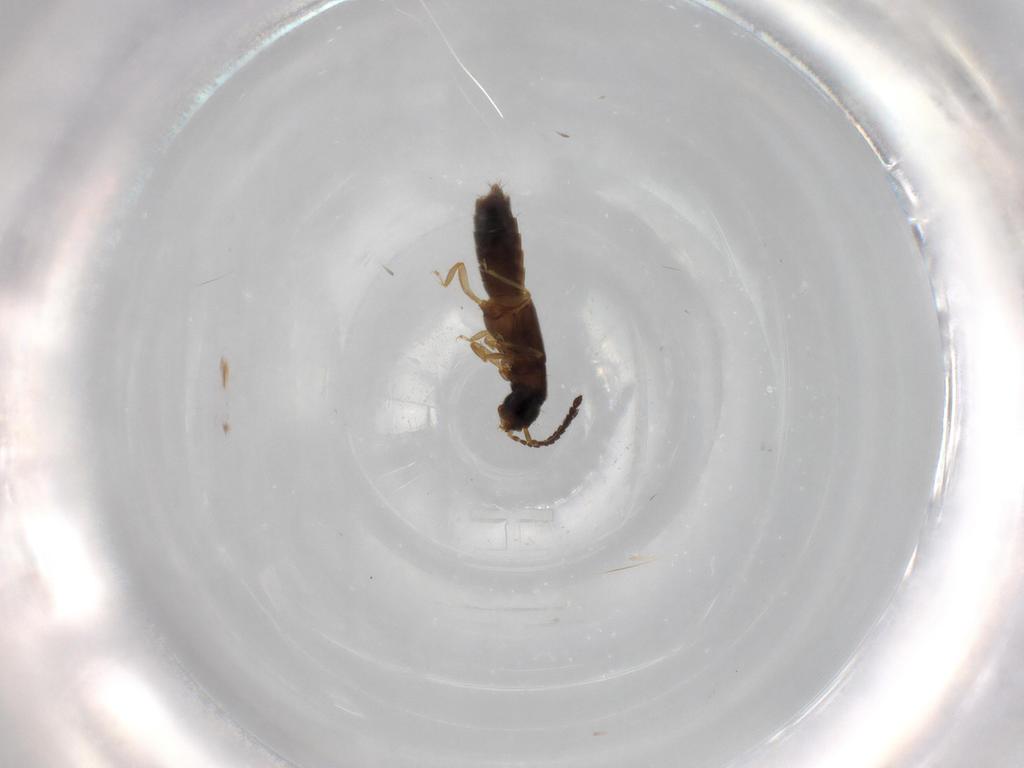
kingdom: Animalia
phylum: Arthropoda
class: Insecta
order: Coleoptera
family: Staphylinidae
